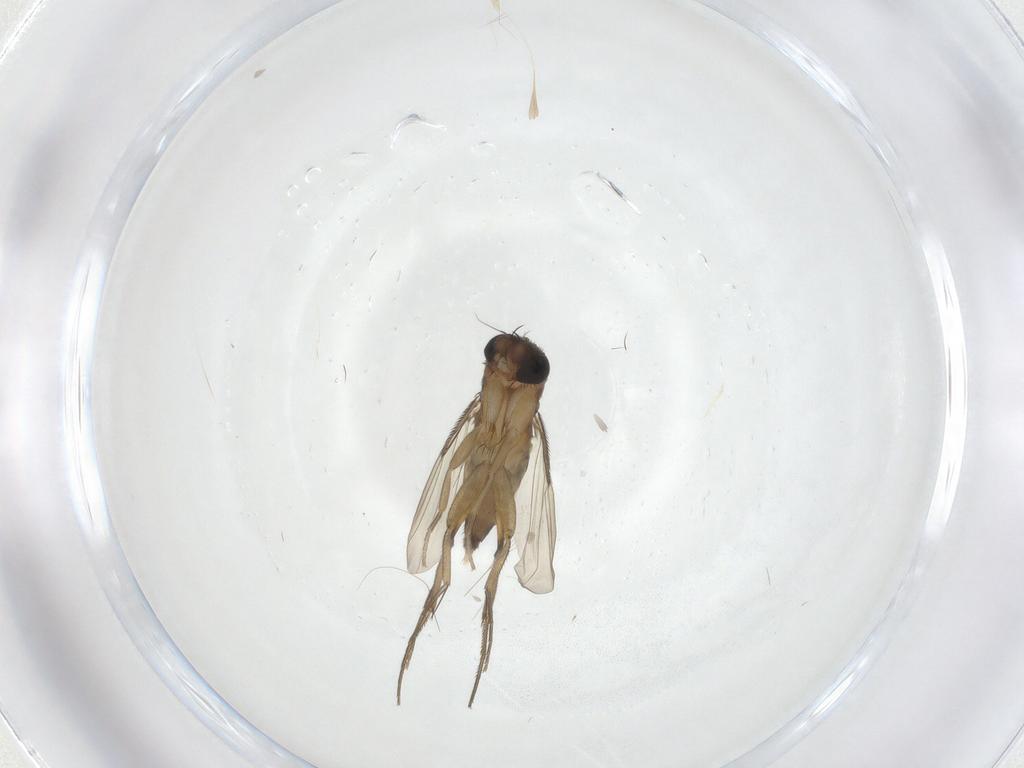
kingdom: Animalia
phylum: Arthropoda
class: Insecta
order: Diptera
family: Phoridae
